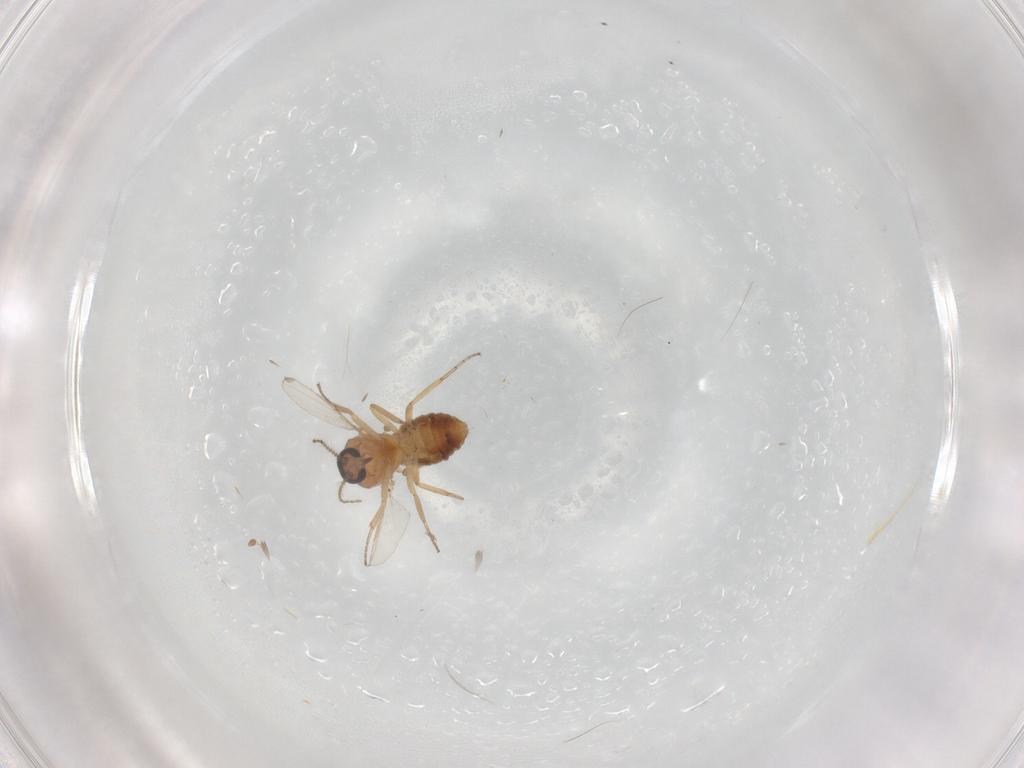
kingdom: Animalia
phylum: Arthropoda
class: Insecta
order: Diptera
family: Ceratopogonidae
